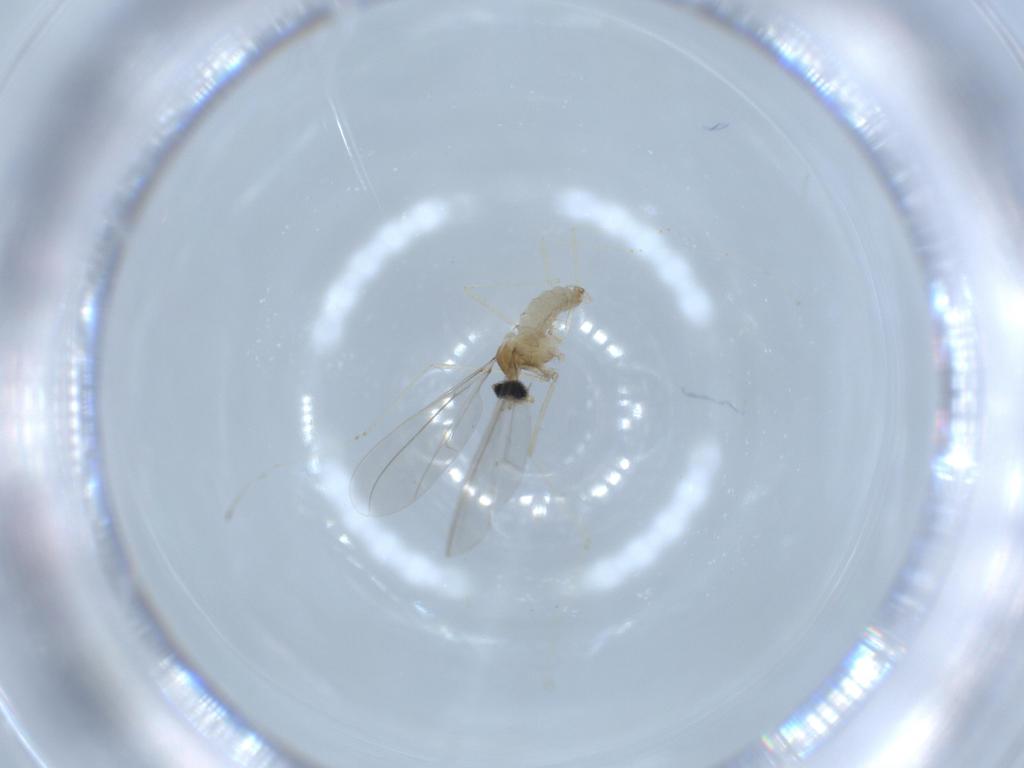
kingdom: Animalia
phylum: Arthropoda
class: Insecta
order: Diptera
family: Cecidomyiidae
